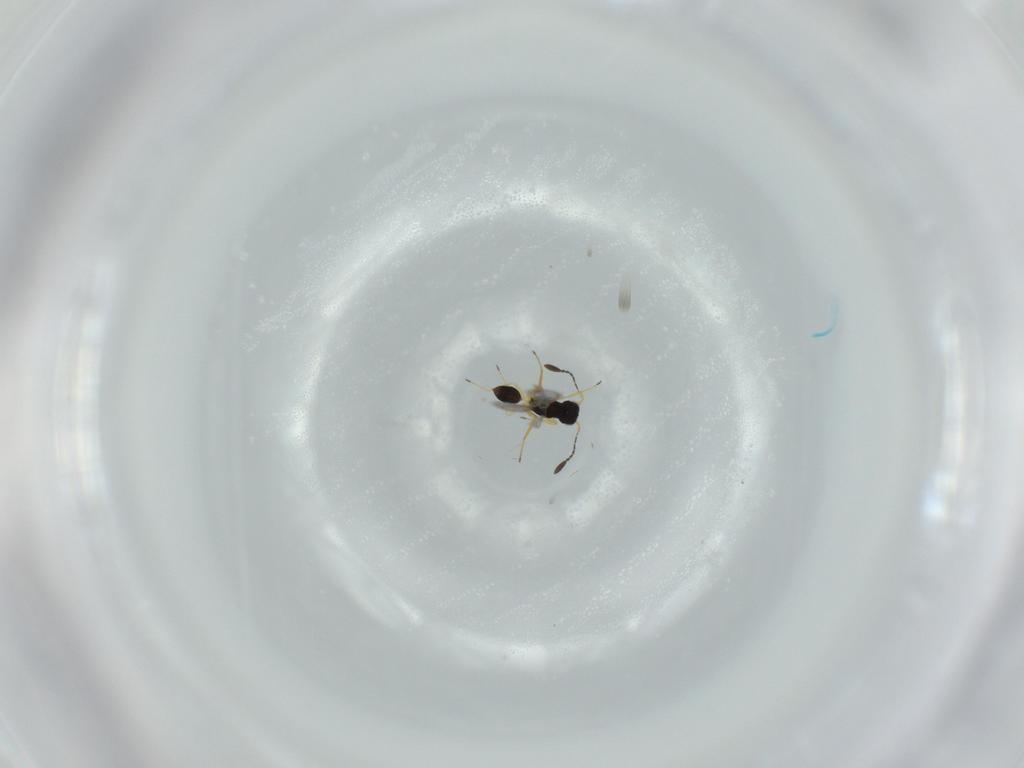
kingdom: Animalia
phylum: Arthropoda
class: Insecta
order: Hymenoptera
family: Mymaridae
